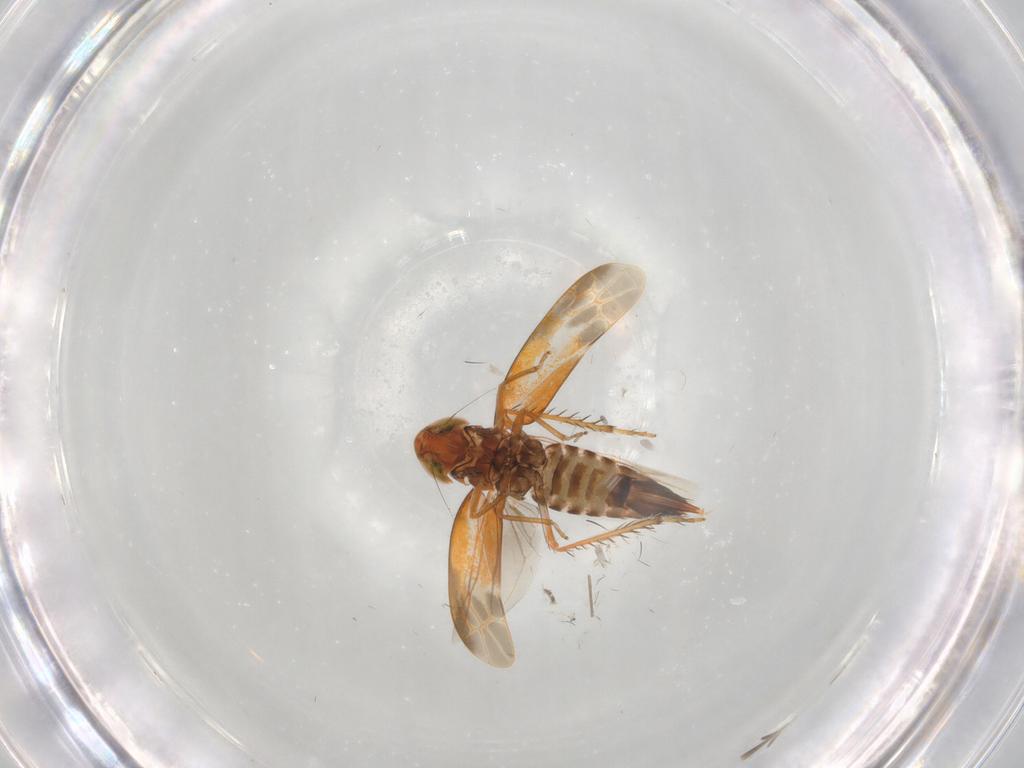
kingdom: Animalia
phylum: Arthropoda
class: Insecta
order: Hemiptera
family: Cicadellidae
